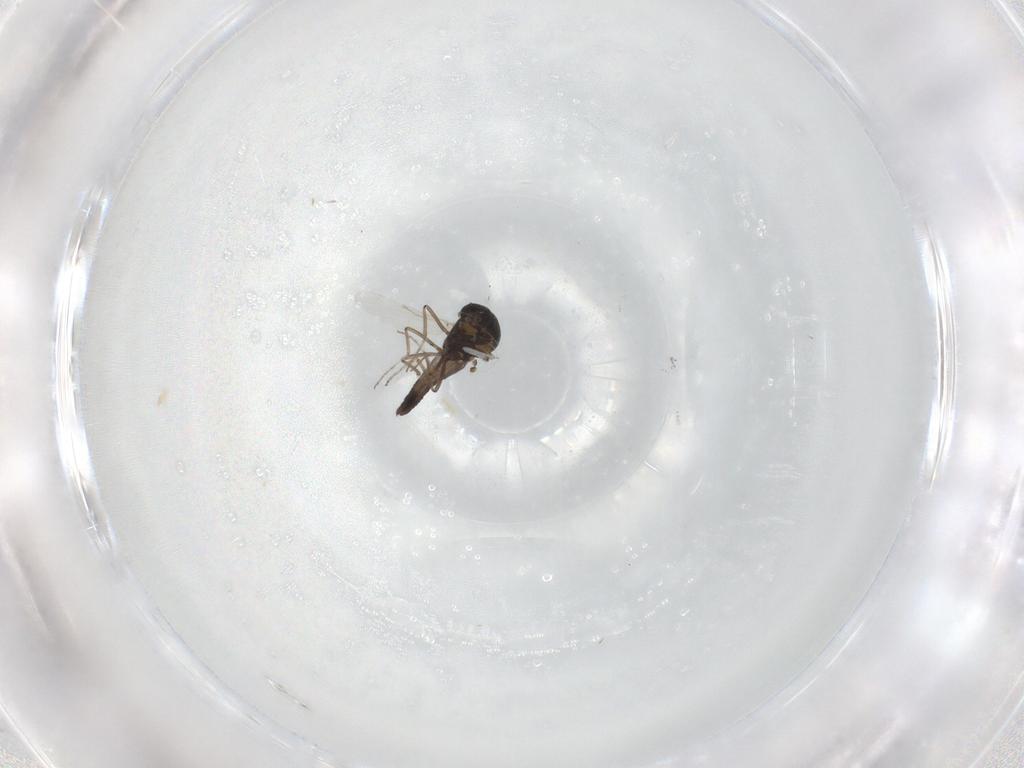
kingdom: Animalia
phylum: Arthropoda
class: Insecta
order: Diptera
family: Ceratopogonidae
